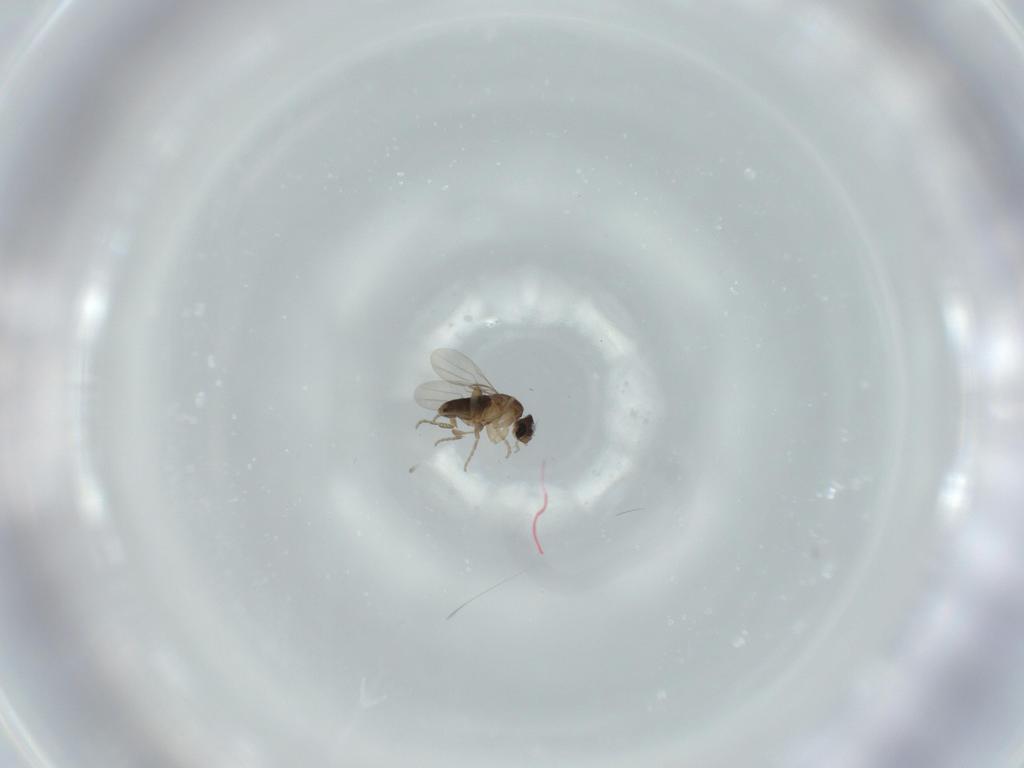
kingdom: Animalia
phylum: Arthropoda
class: Insecta
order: Diptera
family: Phoridae
